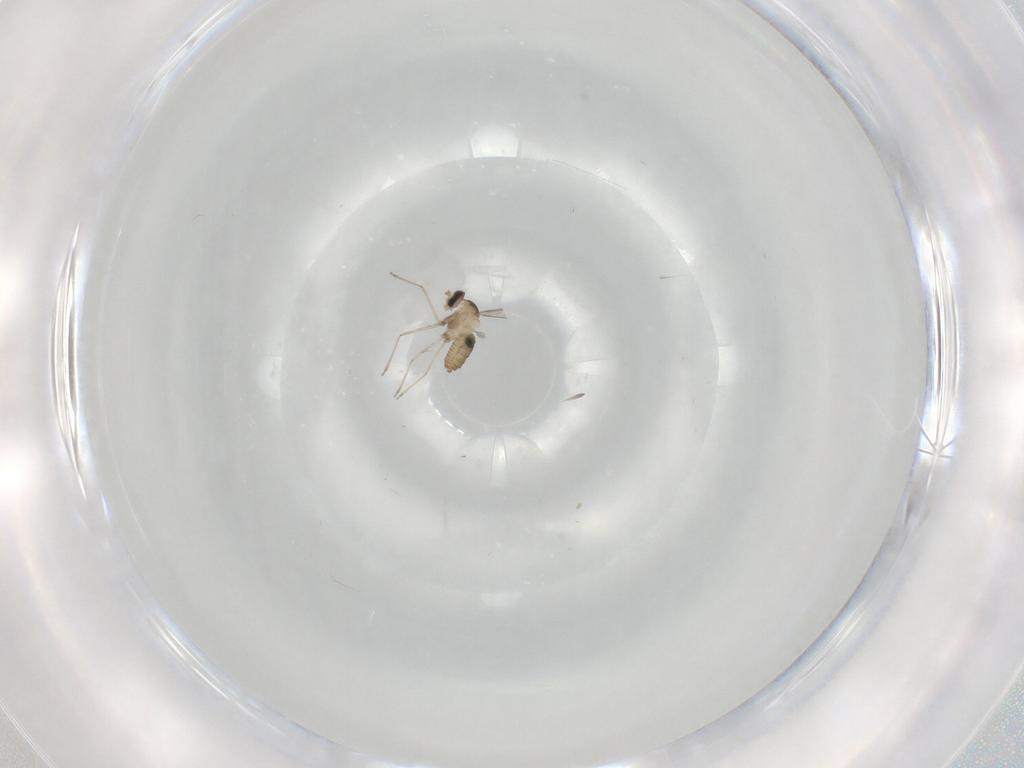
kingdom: Animalia
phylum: Arthropoda
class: Insecta
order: Diptera
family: Cecidomyiidae
